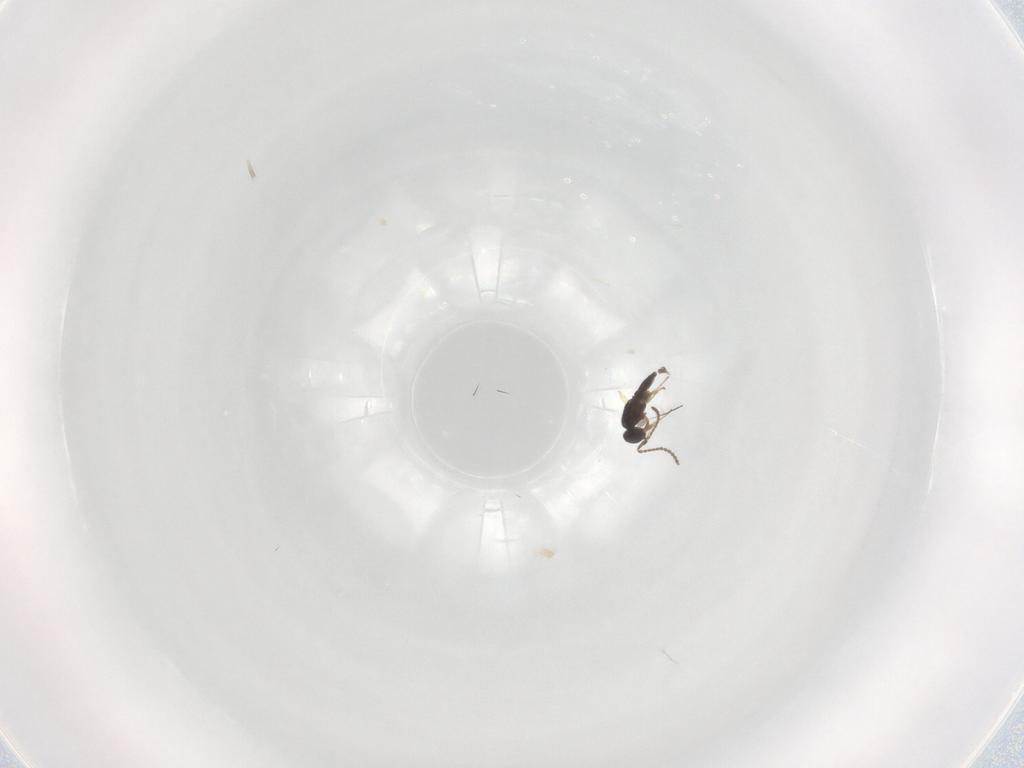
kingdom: Animalia
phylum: Arthropoda
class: Insecta
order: Hymenoptera
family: Scelionidae
